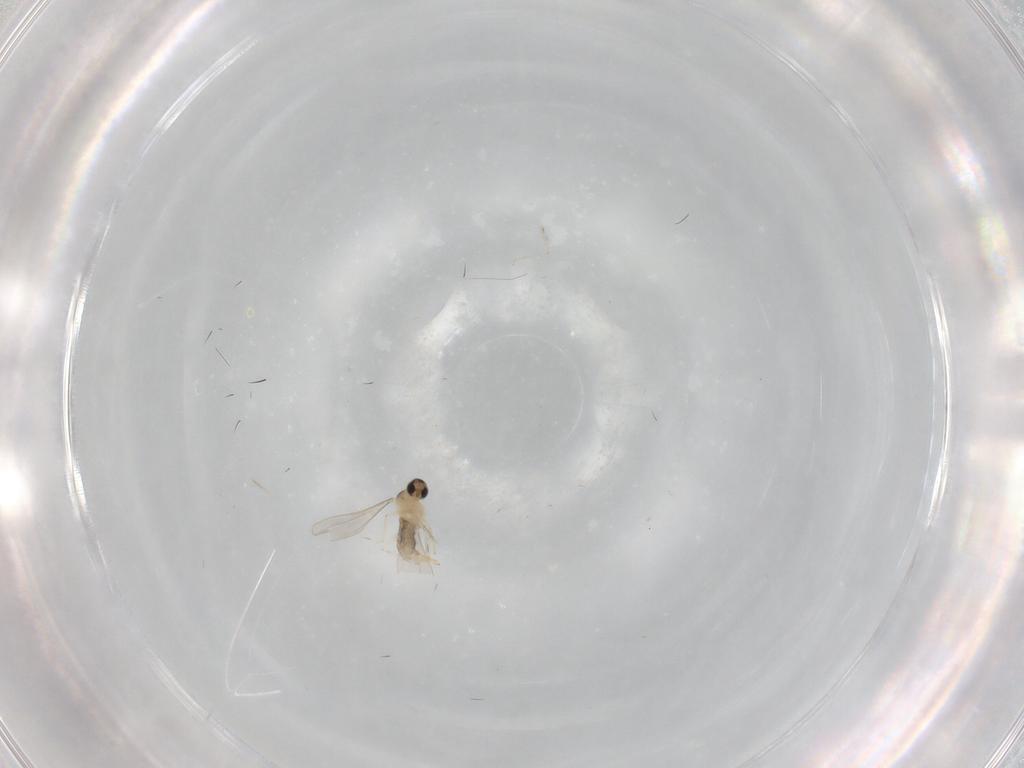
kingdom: Animalia
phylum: Arthropoda
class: Insecta
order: Diptera
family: Tabanidae
